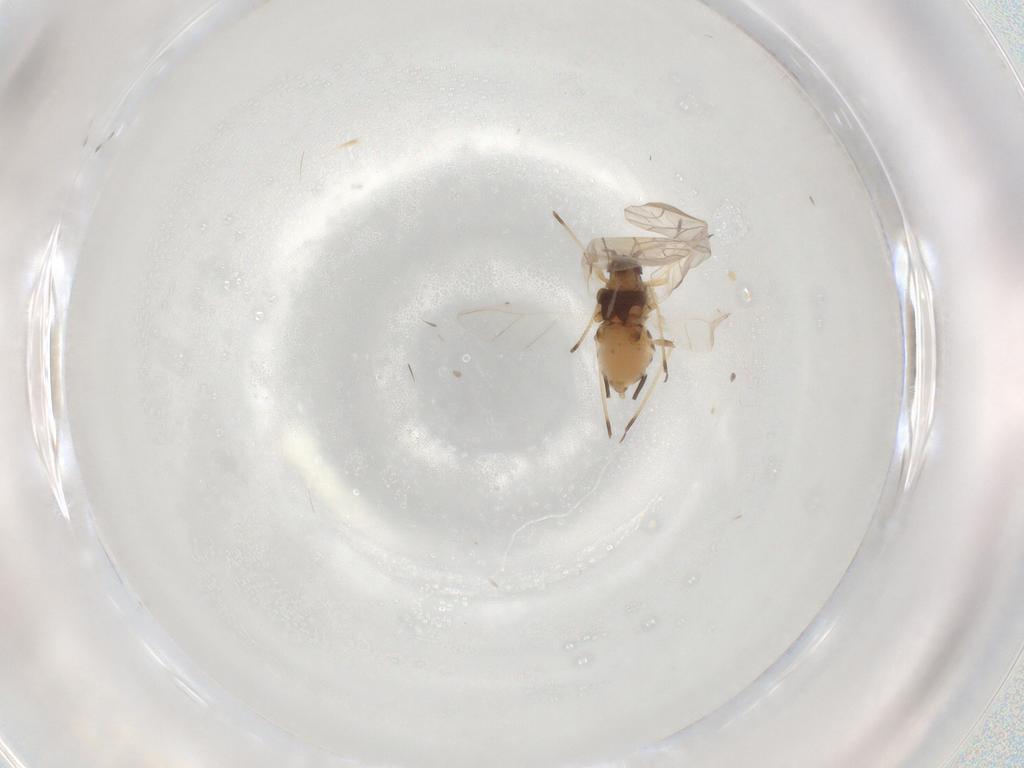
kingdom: Animalia
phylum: Arthropoda
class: Insecta
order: Hemiptera
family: Aphididae
